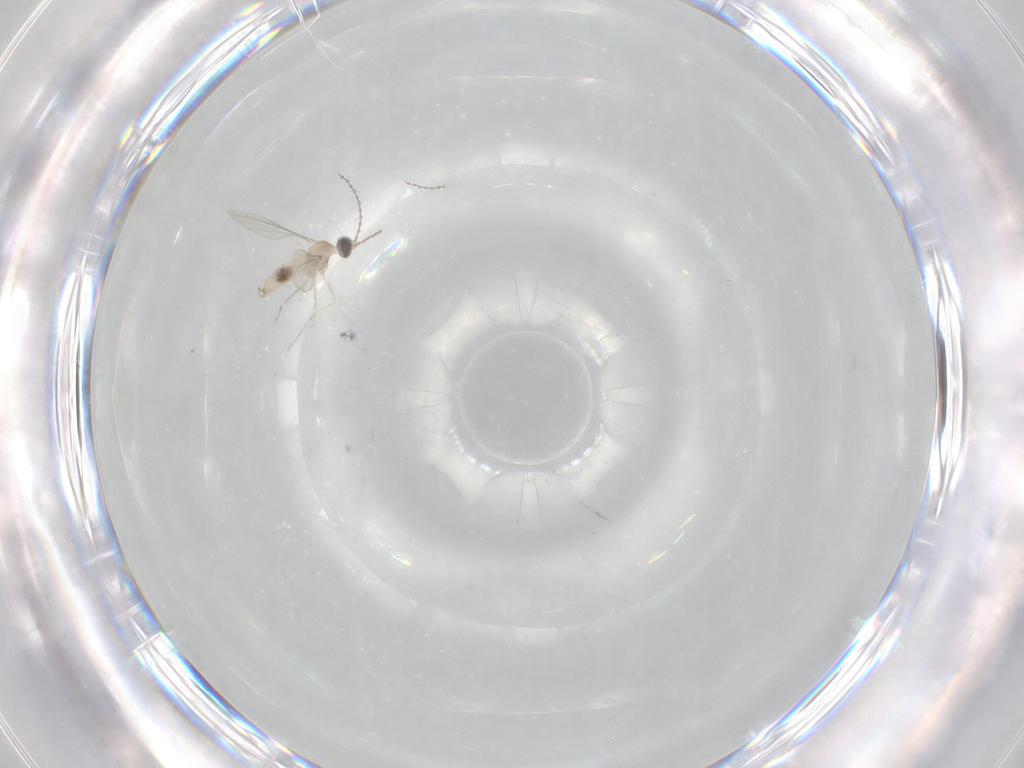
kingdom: Animalia
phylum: Arthropoda
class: Insecta
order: Diptera
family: Cecidomyiidae
